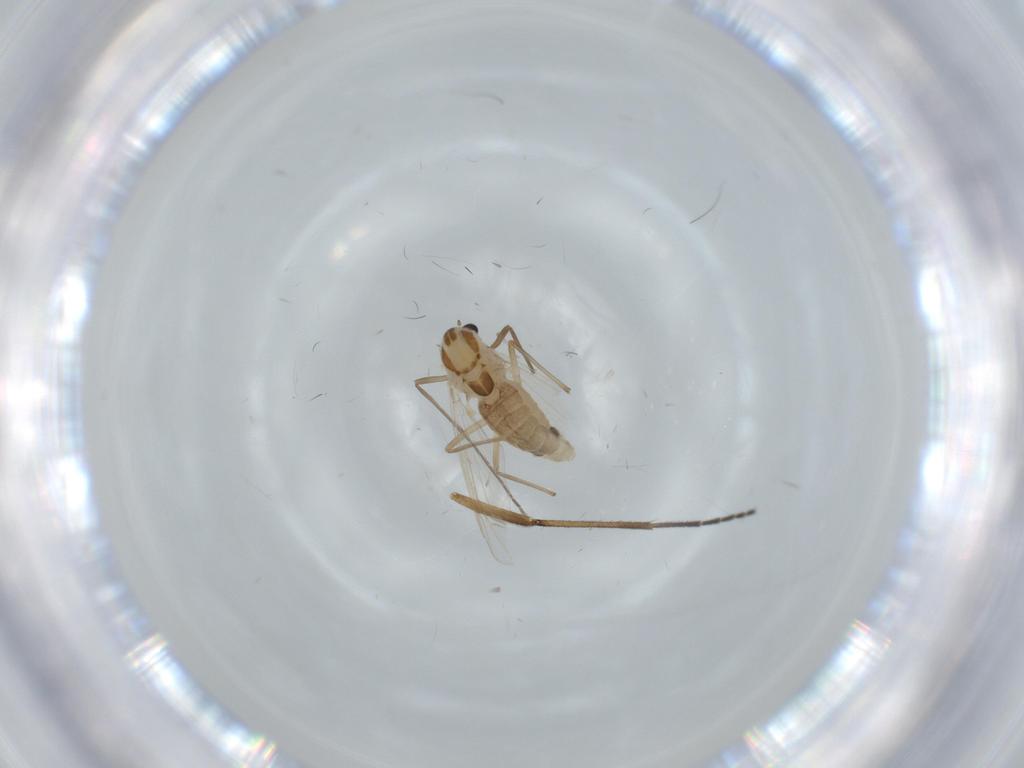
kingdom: Animalia
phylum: Arthropoda
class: Insecta
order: Diptera
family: Chironomidae
